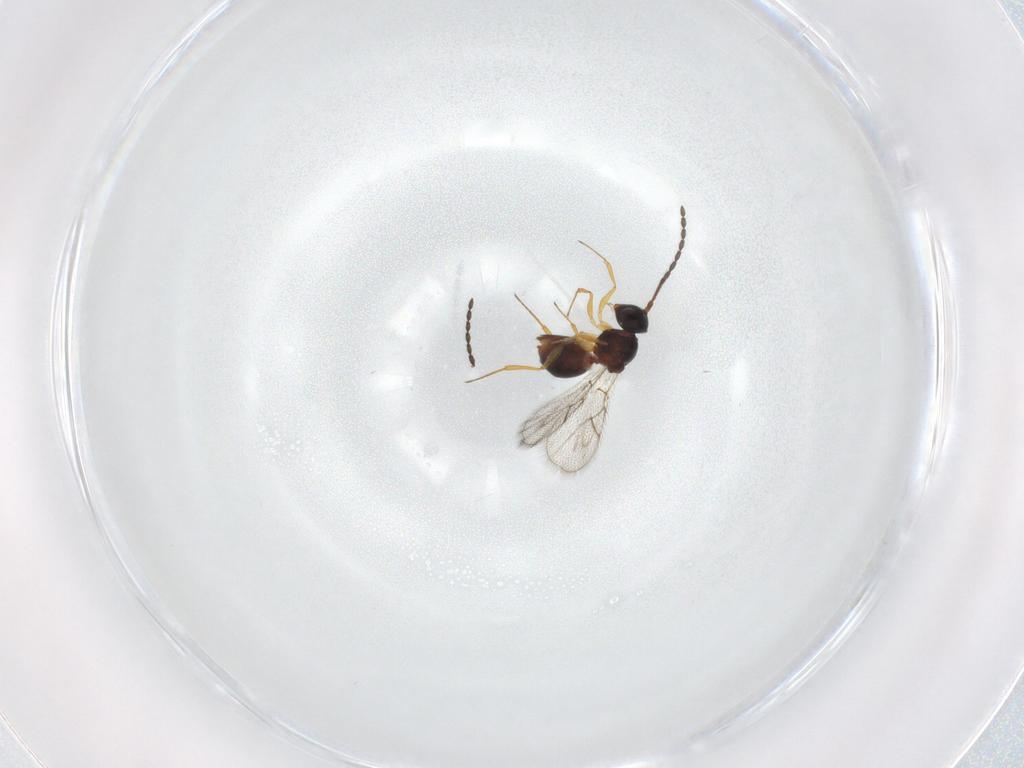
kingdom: Animalia
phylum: Arthropoda
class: Insecta
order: Hymenoptera
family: Figitidae
